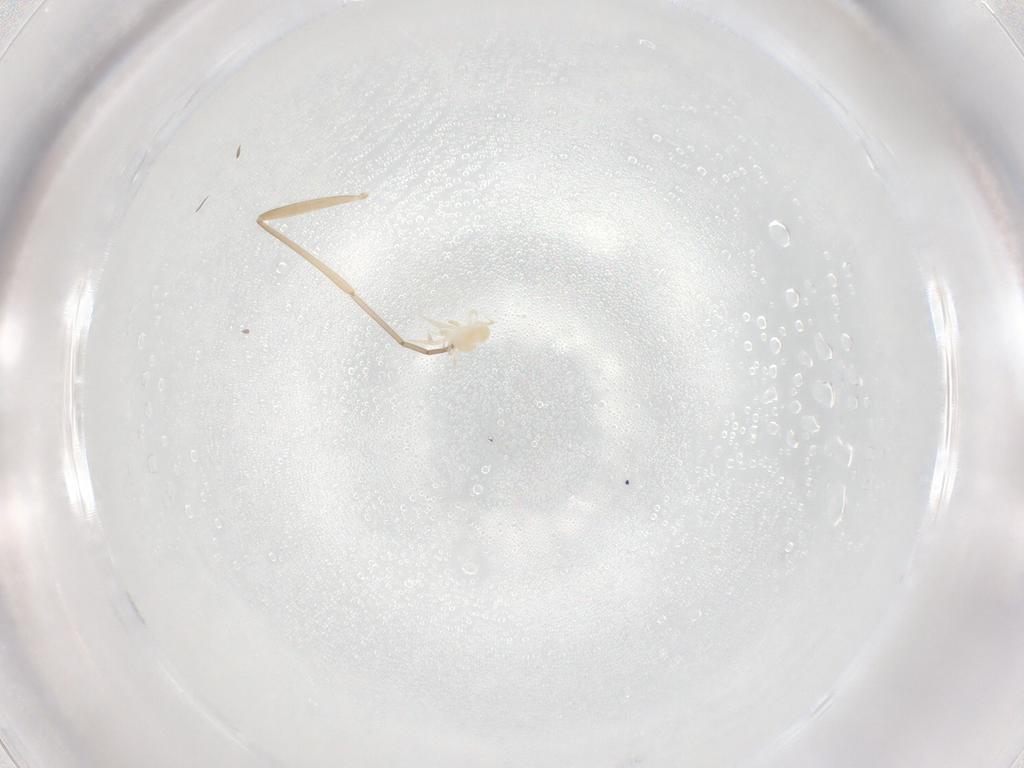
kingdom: Animalia
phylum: Arthropoda
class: Arachnida
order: Mesostigmata
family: Phytoseiidae
